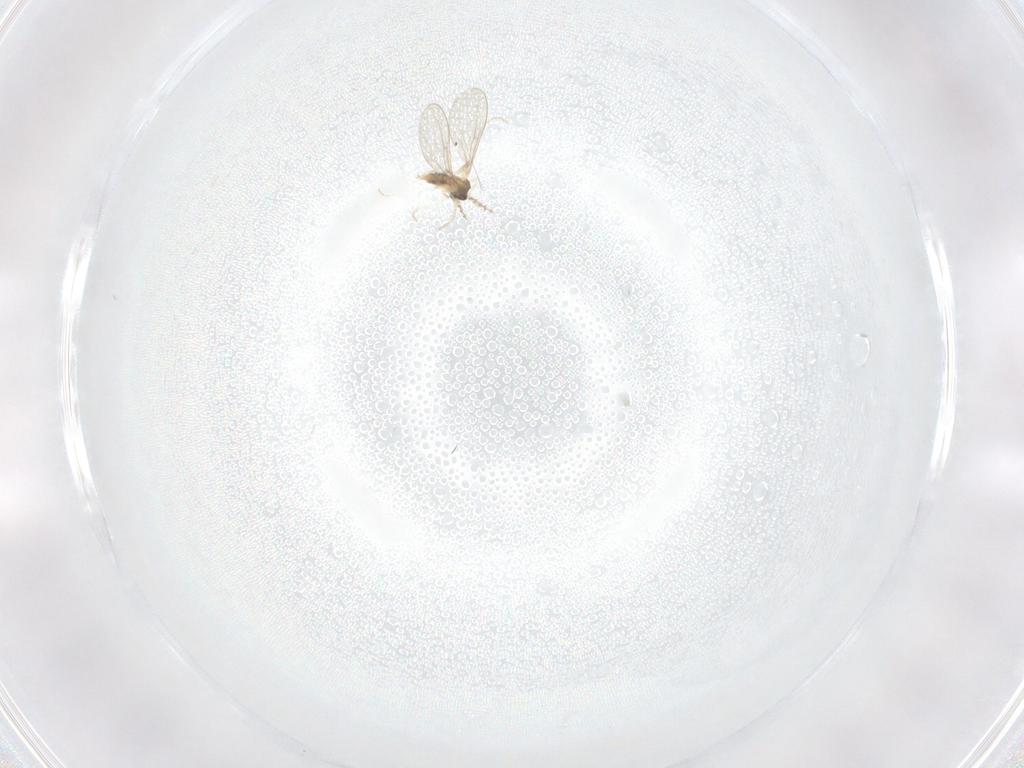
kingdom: Animalia
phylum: Arthropoda
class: Insecta
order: Diptera
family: Cecidomyiidae
